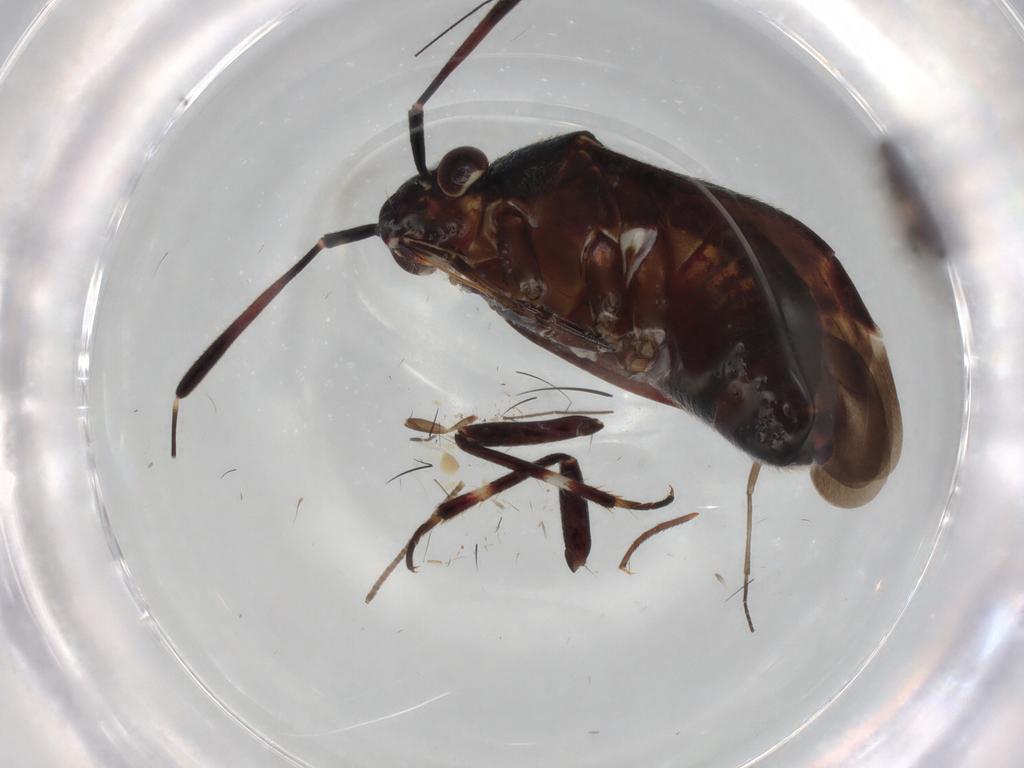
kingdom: Animalia
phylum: Arthropoda
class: Insecta
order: Hemiptera
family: Miridae
